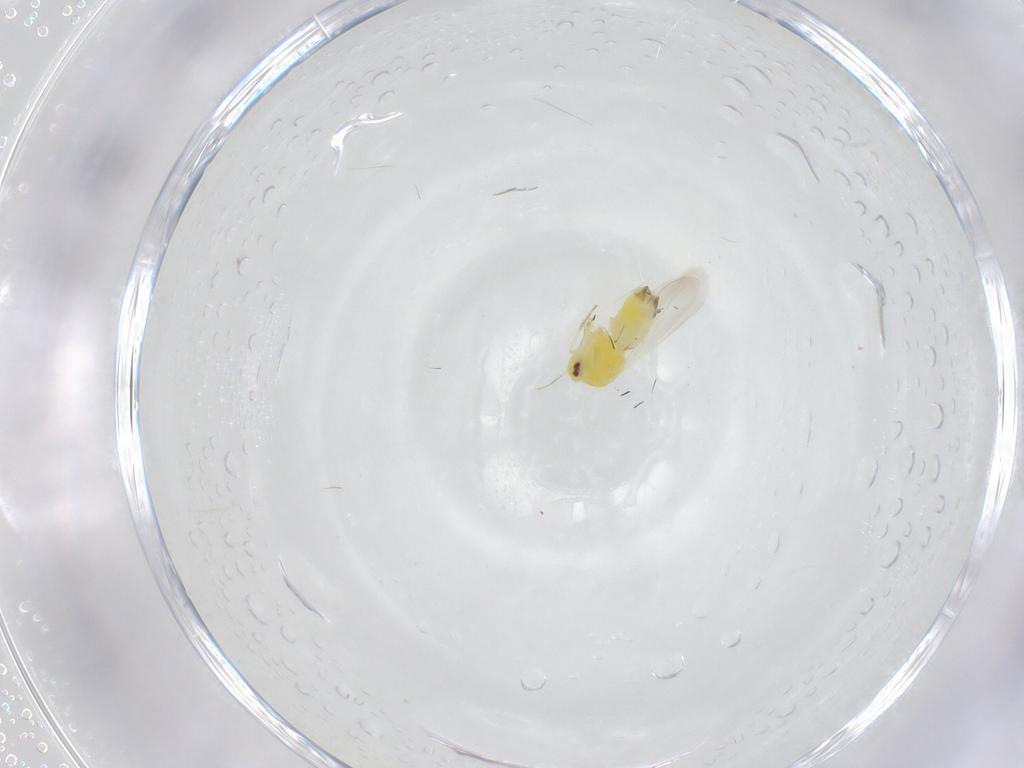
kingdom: Animalia
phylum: Arthropoda
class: Insecta
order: Hemiptera
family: Aleyrodidae
